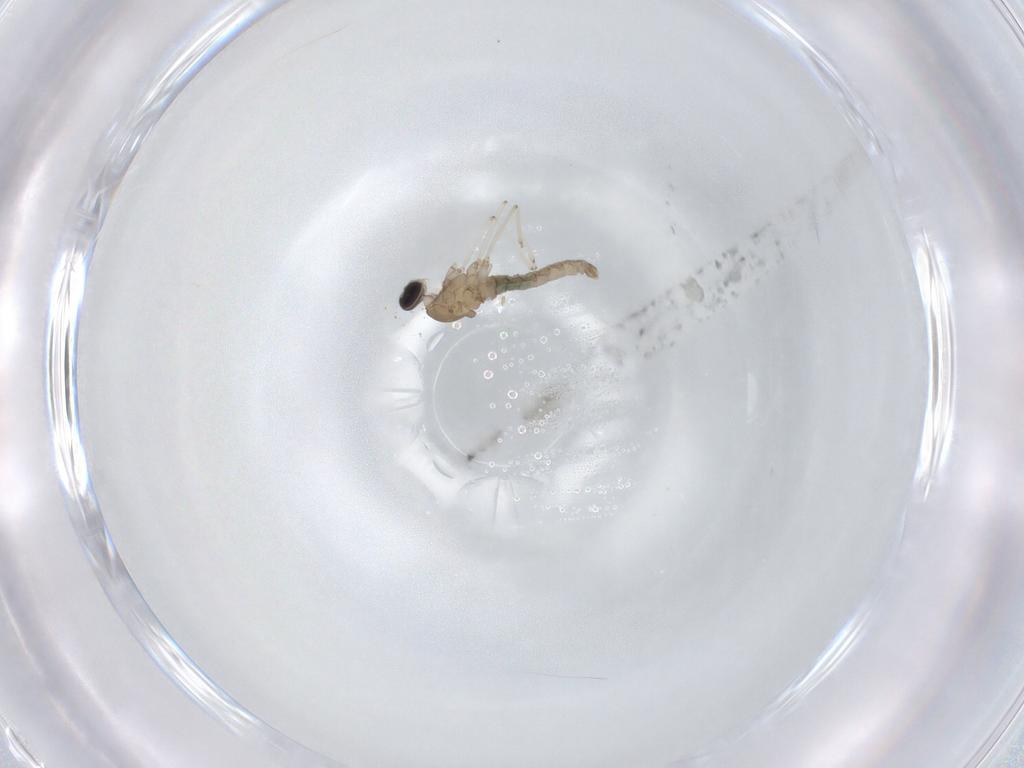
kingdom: Animalia
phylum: Arthropoda
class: Insecta
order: Diptera
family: Cecidomyiidae
